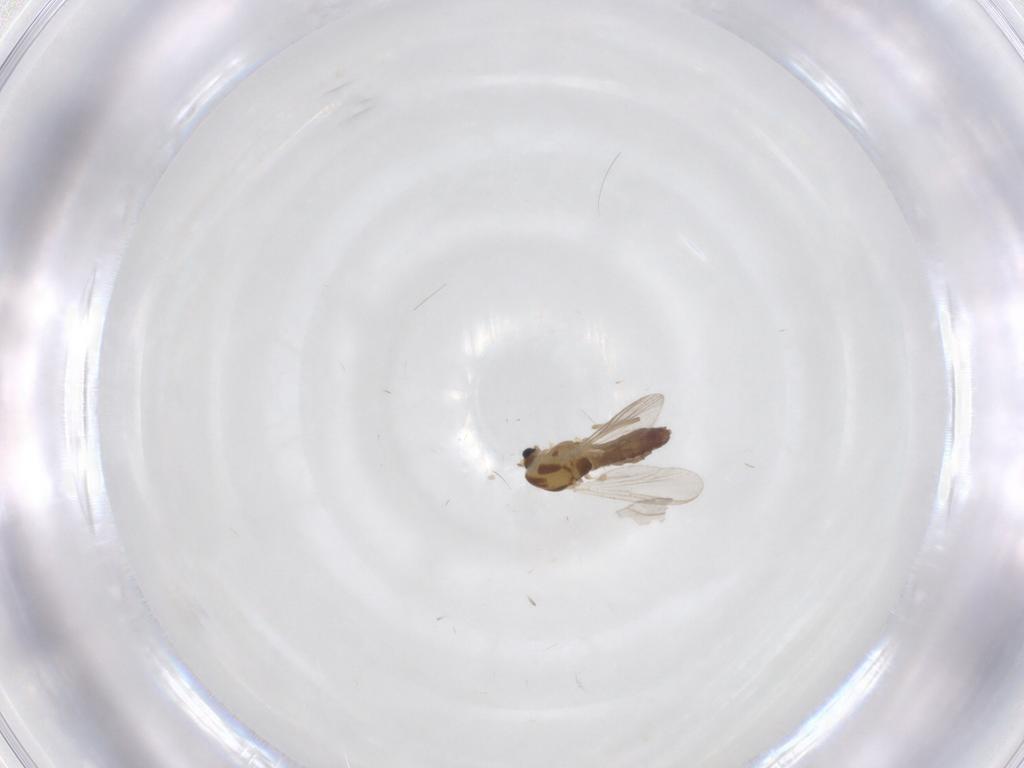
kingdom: Animalia
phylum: Arthropoda
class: Insecta
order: Diptera
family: Chironomidae
